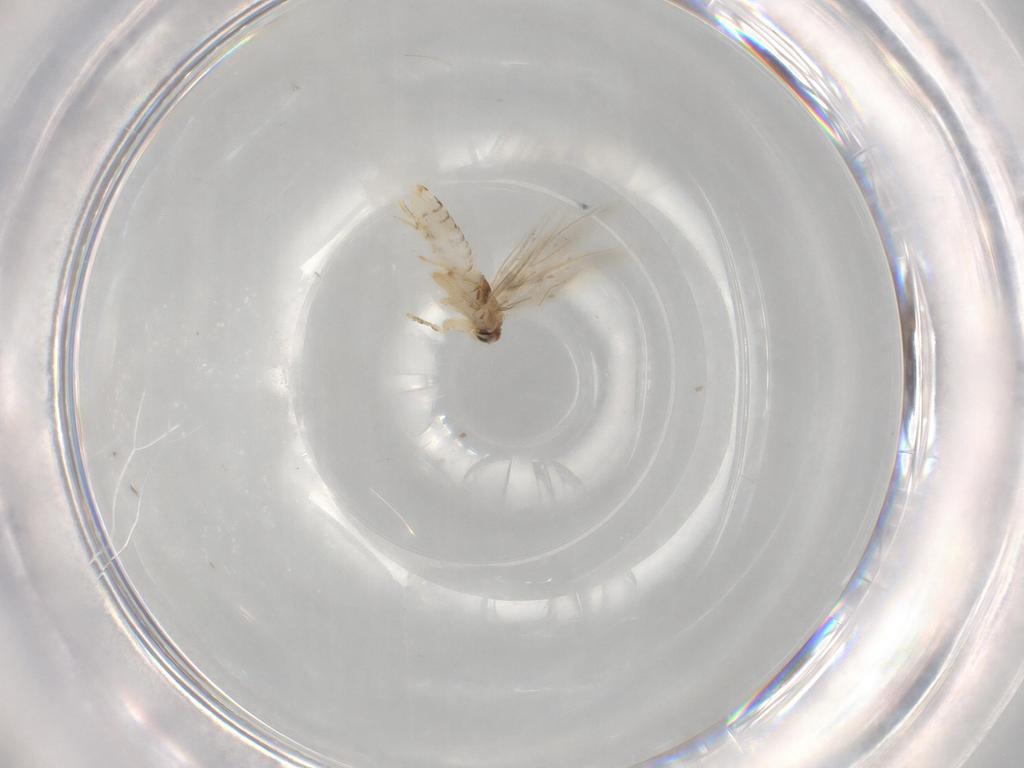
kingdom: Animalia
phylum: Arthropoda
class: Insecta
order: Lepidoptera
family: Copromorphidae
